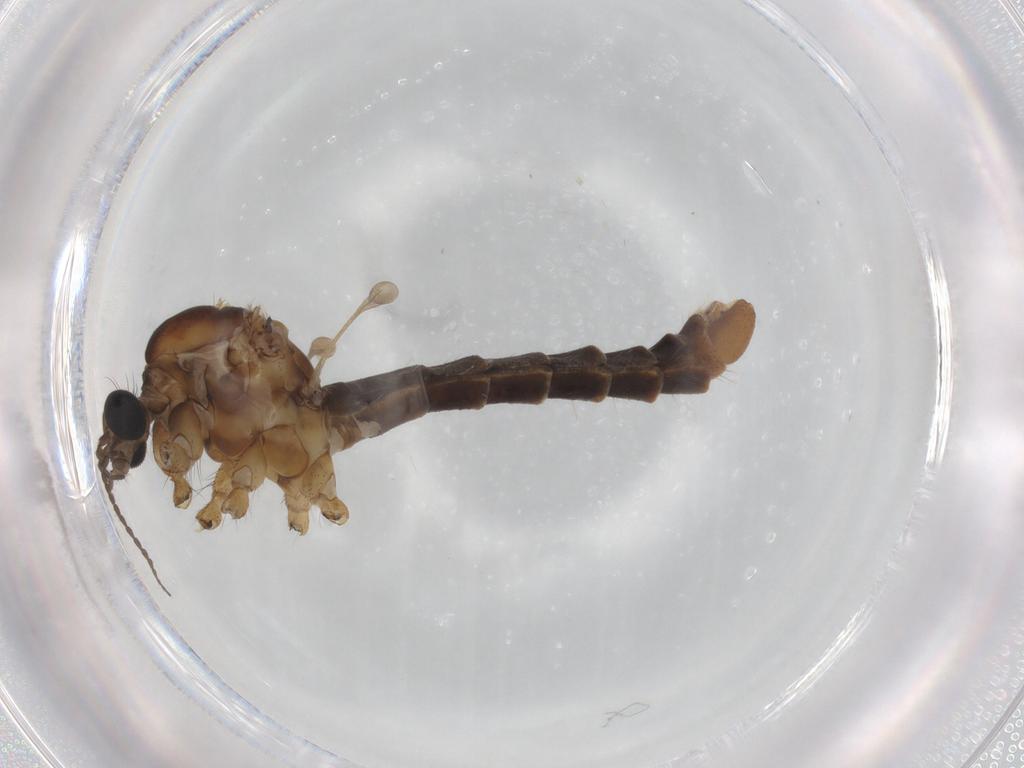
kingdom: Animalia
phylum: Arthropoda
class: Insecta
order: Diptera
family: Limoniidae
